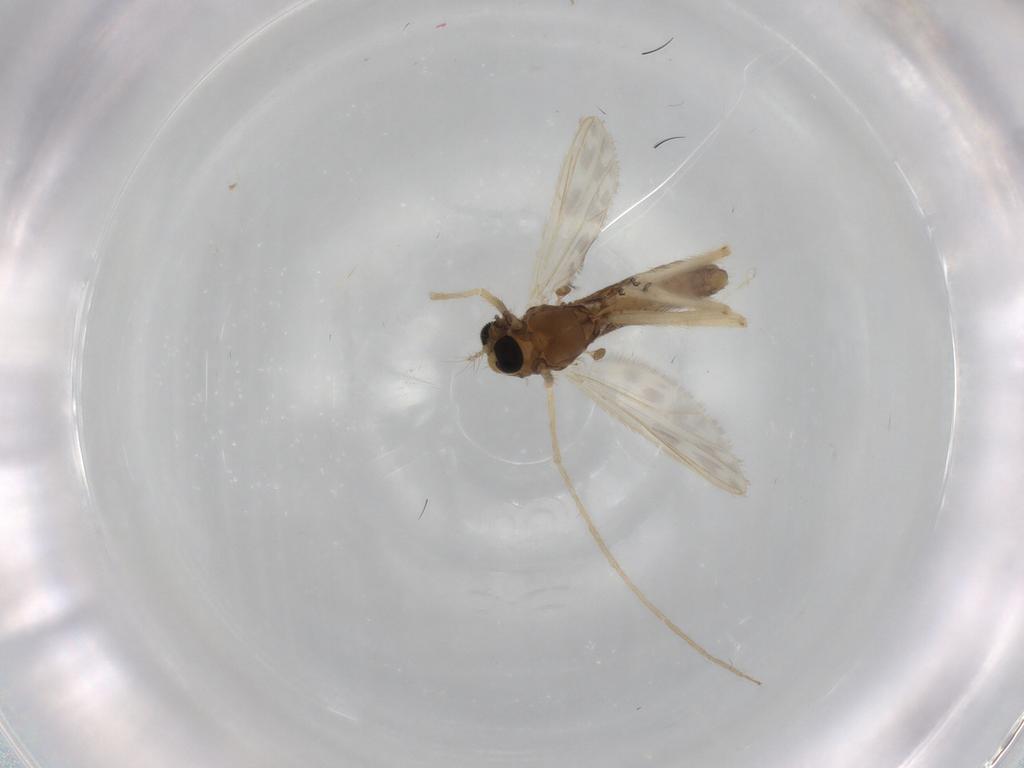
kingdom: Animalia
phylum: Arthropoda
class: Insecta
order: Diptera
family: Chironomidae
